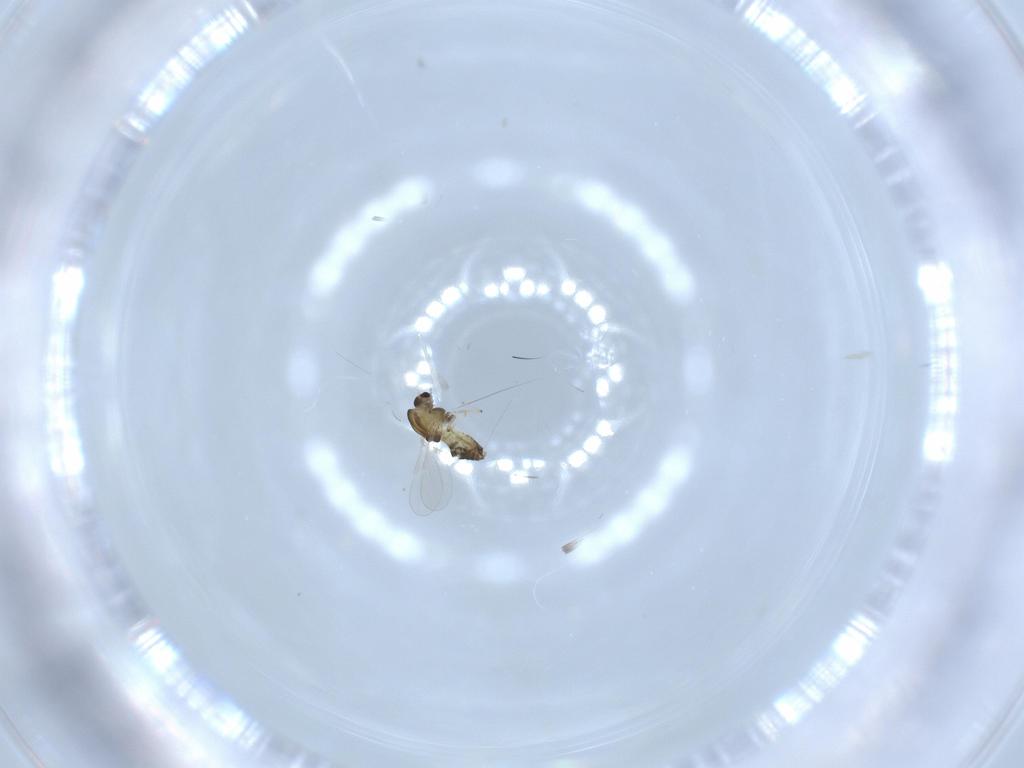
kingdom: Animalia
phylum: Arthropoda
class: Insecta
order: Diptera
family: Chironomidae
